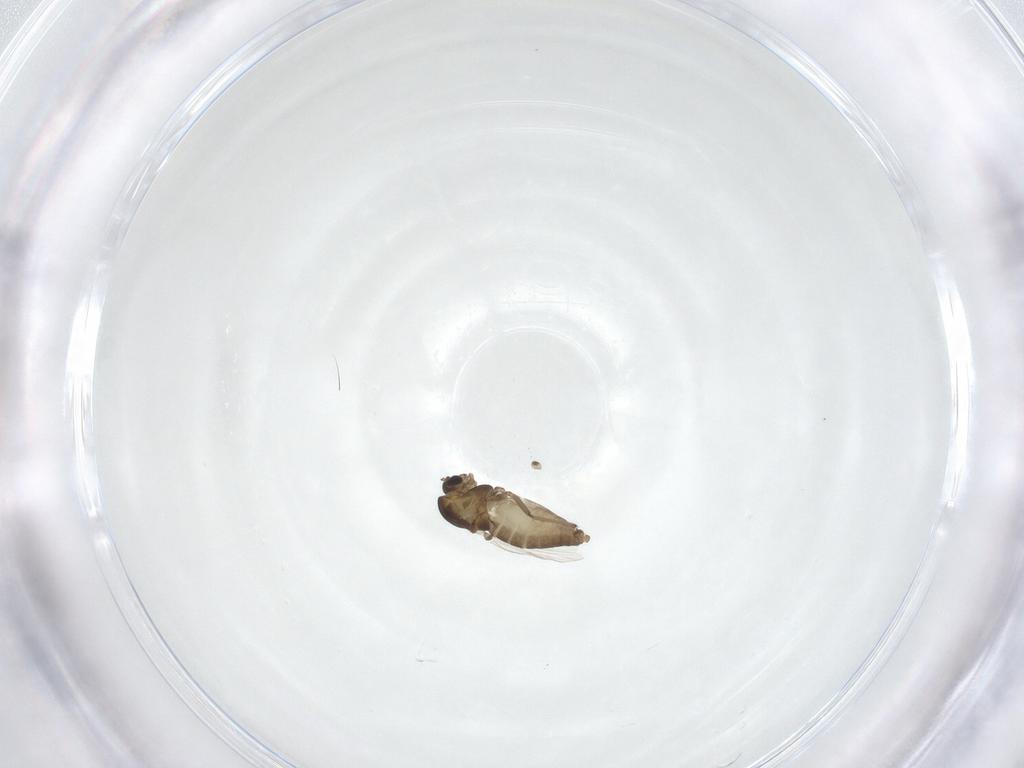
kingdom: Animalia
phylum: Arthropoda
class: Insecta
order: Diptera
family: Chironomidae
